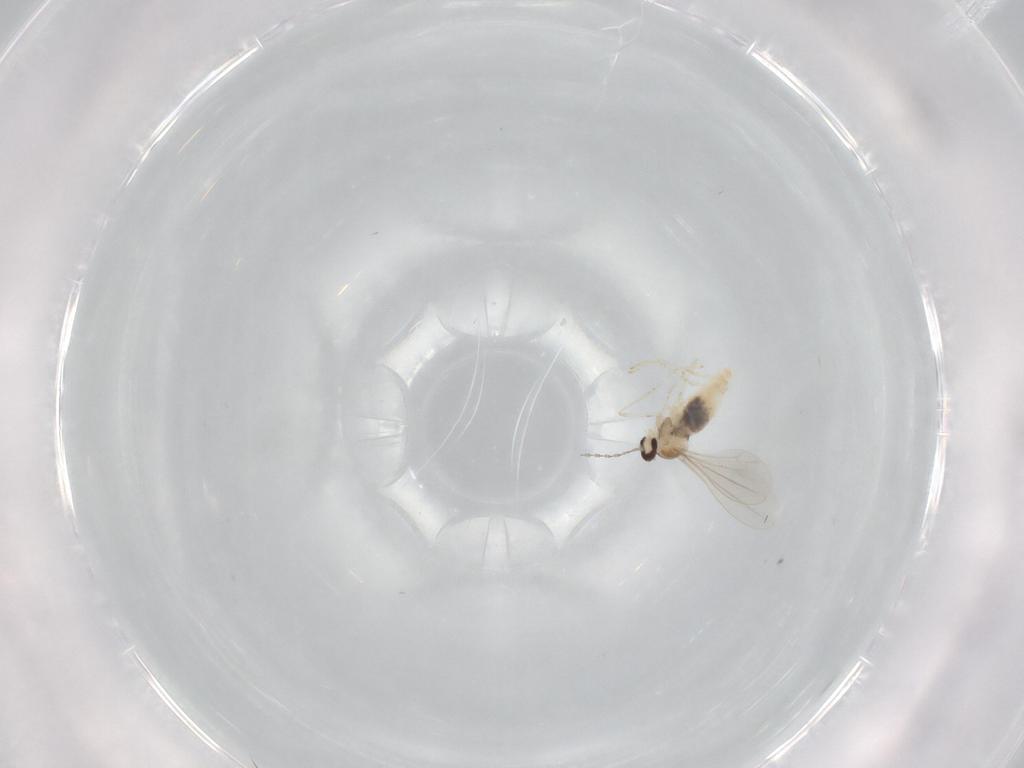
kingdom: Animalia
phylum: Arthropoda
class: Insecta
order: Diptera
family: Cecidomyiidae
